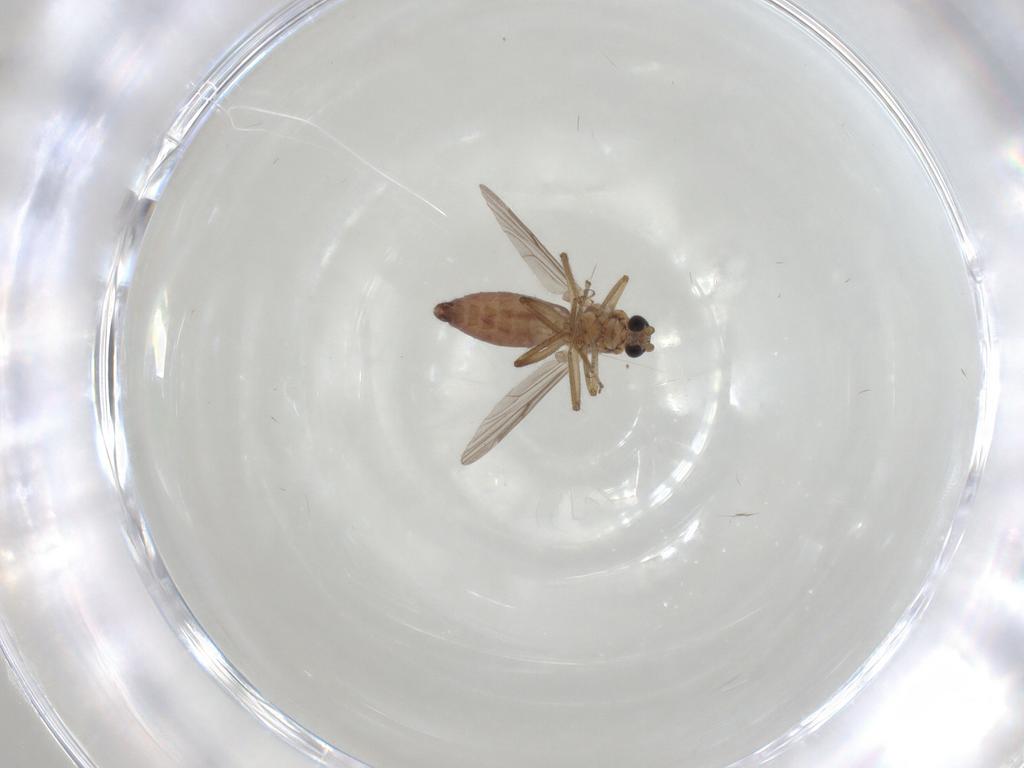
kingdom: Animalia
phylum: Arthropoda
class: Insecta
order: Diptera
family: Ceratopogonidae
